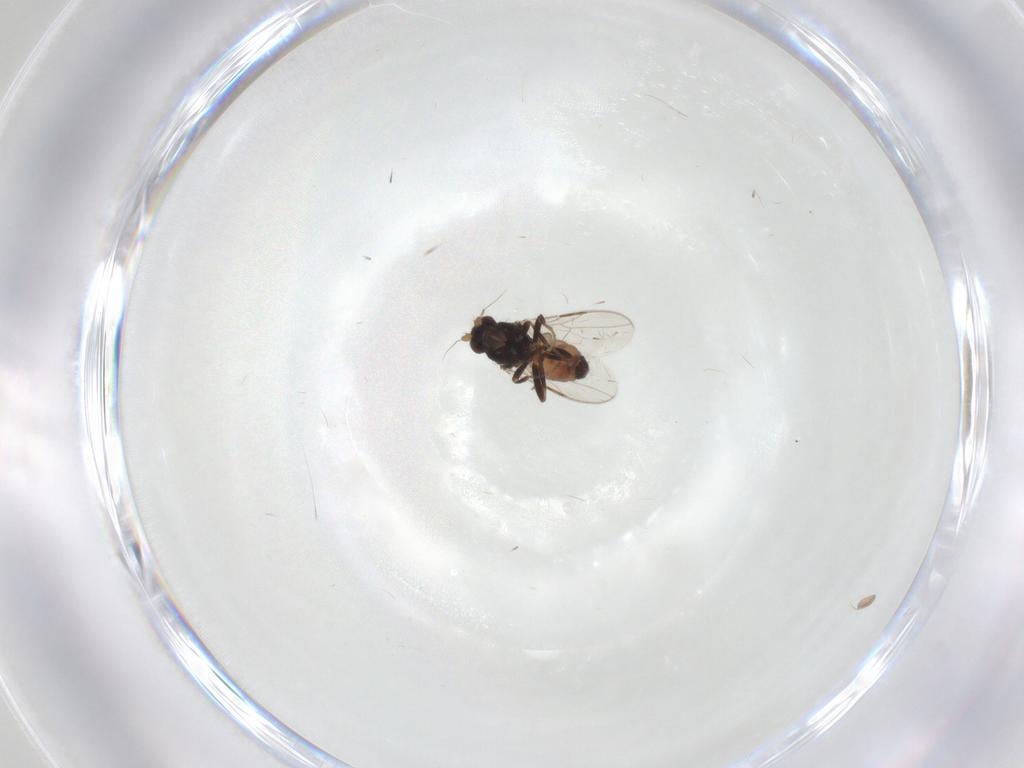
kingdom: Animalia
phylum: Arthropoda
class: Insecta
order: Diptera
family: Sphaeroceridae
